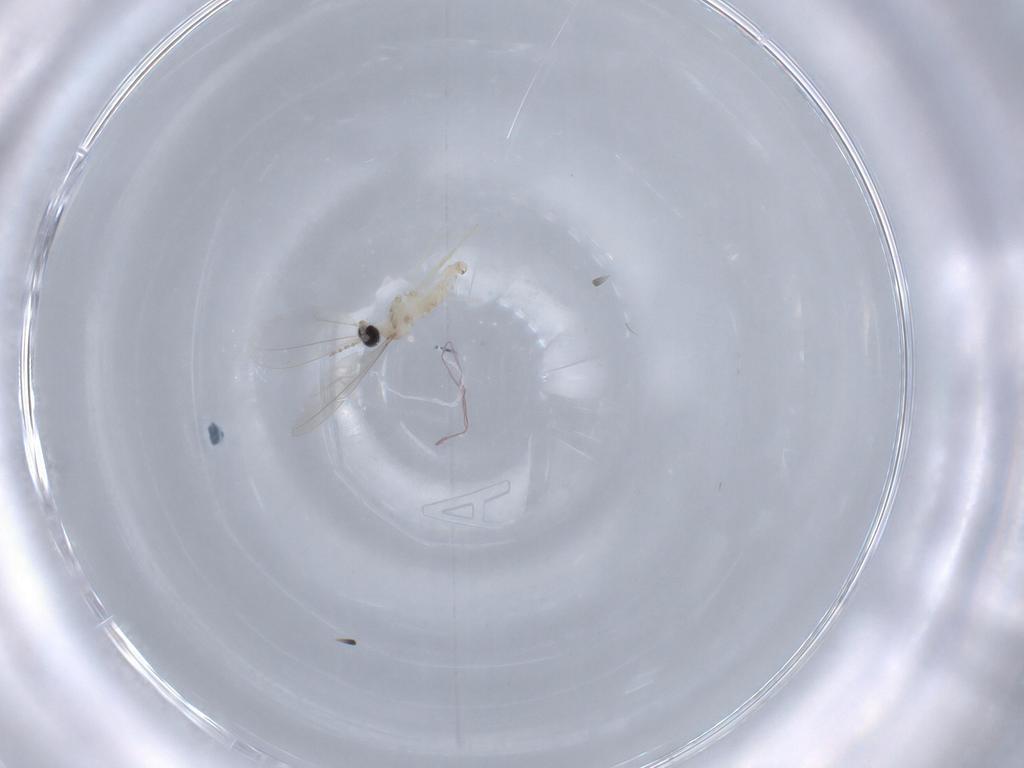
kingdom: Animalia
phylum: Arthropoda
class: Insecta
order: Diptera
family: Cecidomyiidae
